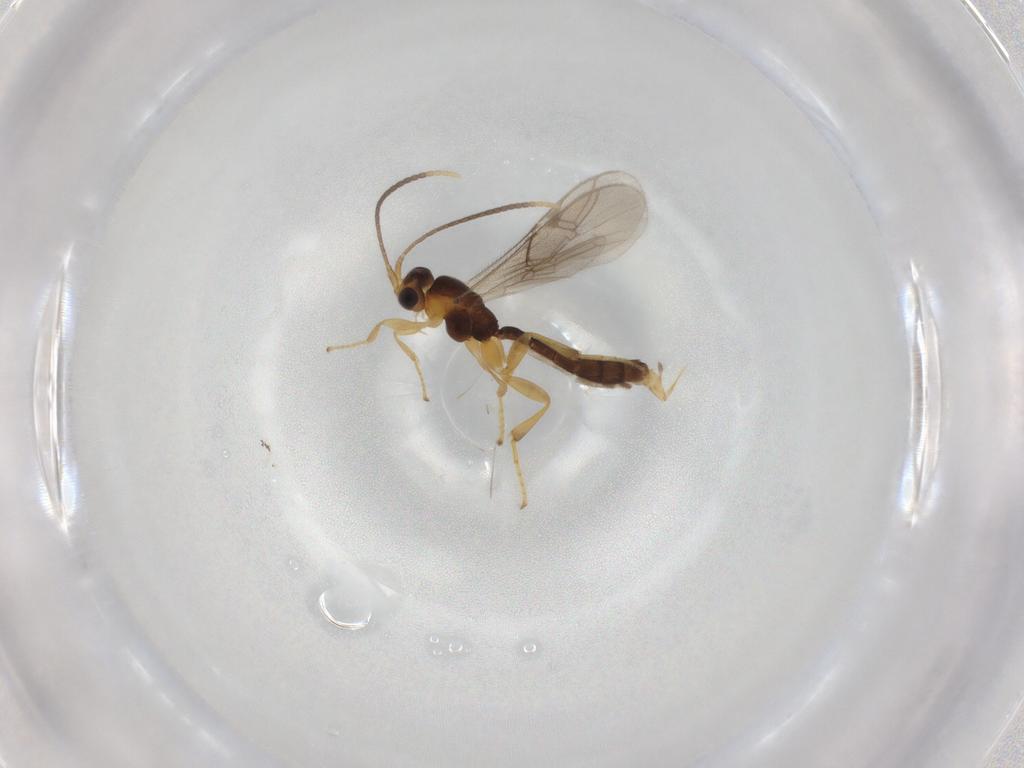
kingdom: Animalia
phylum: Arthropoda
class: Insecta
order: Hymenoptera
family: Ichneumonidae
